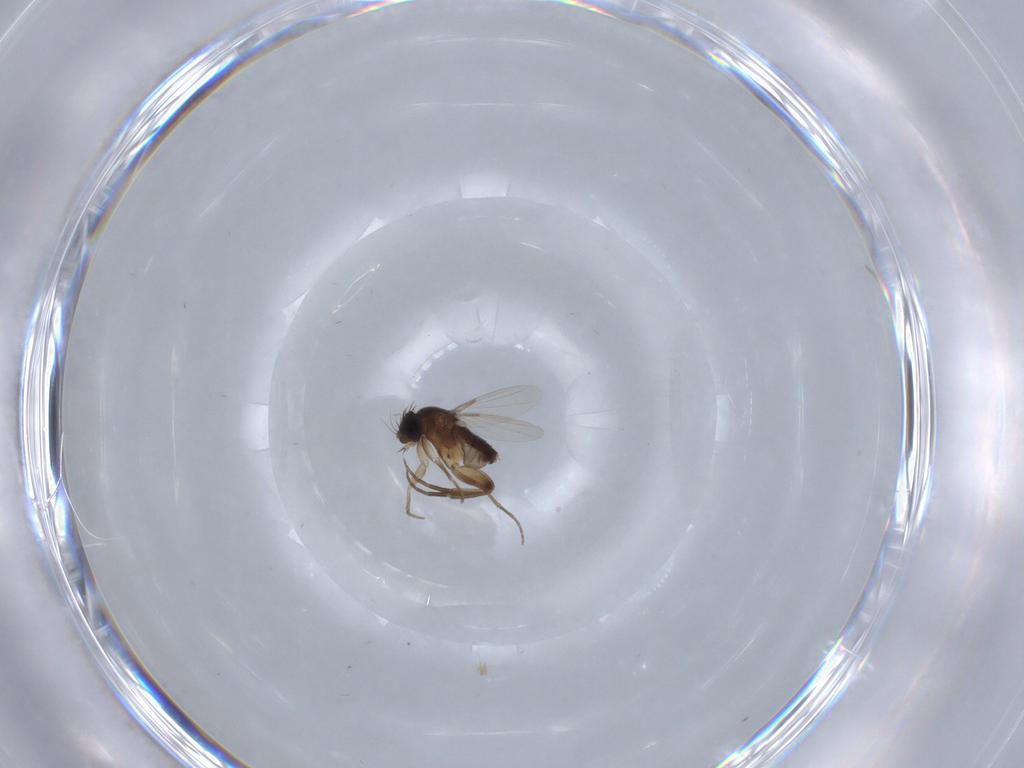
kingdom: Animalia
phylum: Arthropoda
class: Insecta
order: Diptera
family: Phoridae
